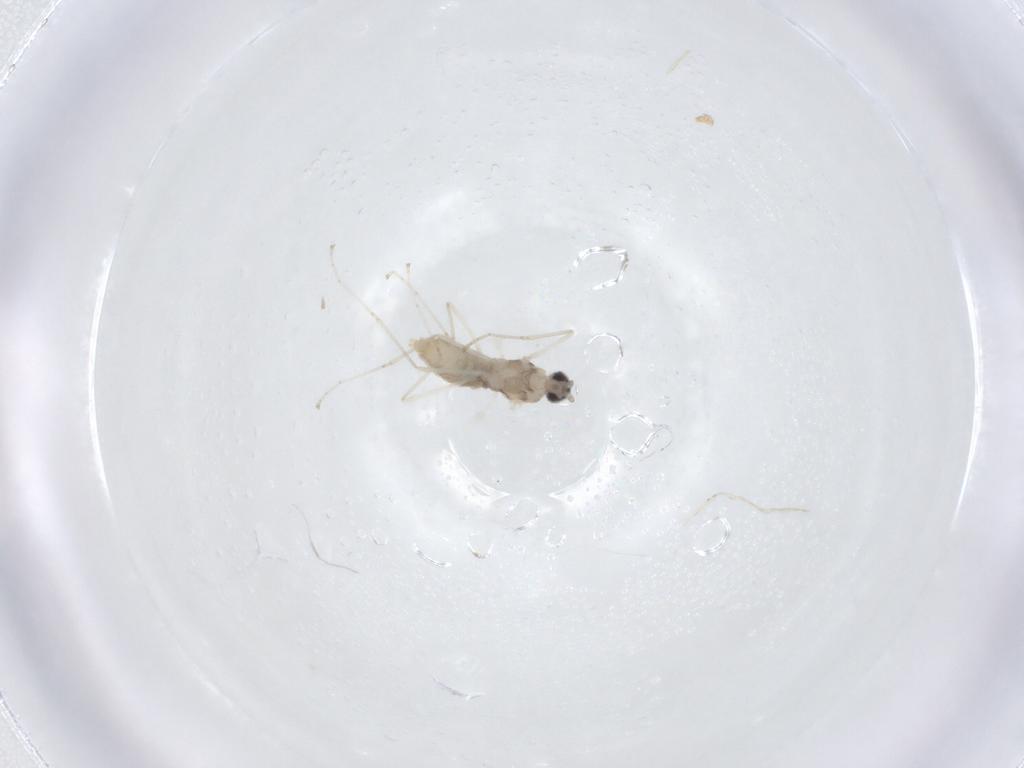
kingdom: Animalia
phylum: Arthropoda
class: Insecta
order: Diptera
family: Cecidomyiidae
